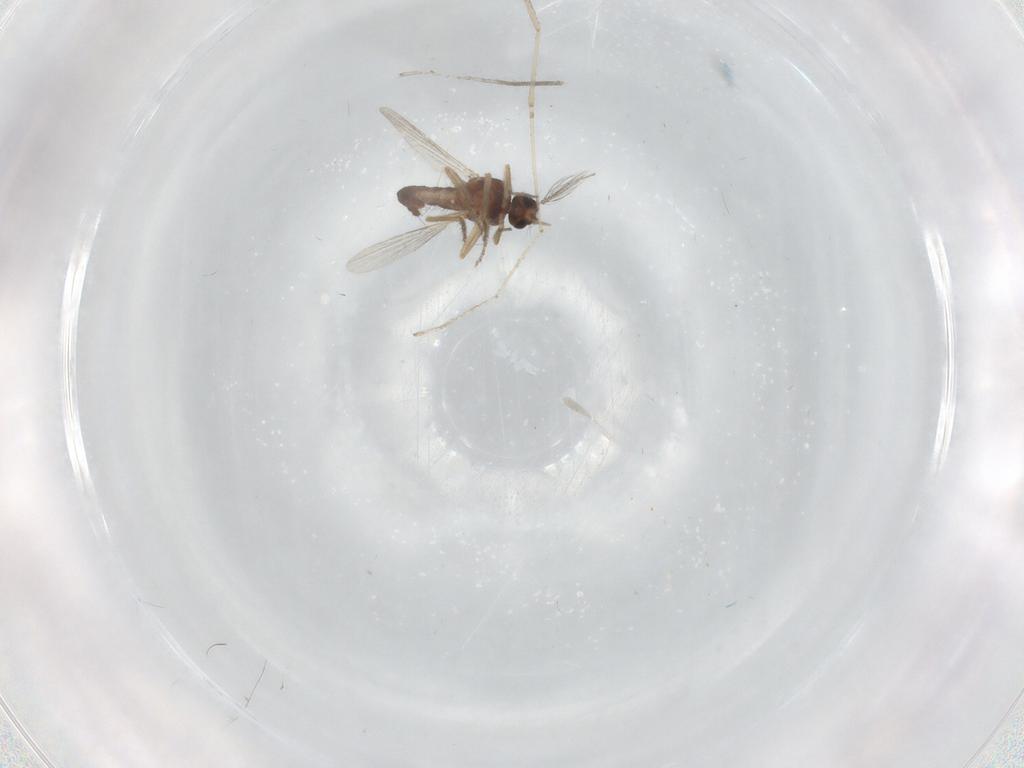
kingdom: Animalia
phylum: Arthropoda
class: Insecta
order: Diptera
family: Ceratopogonidae
